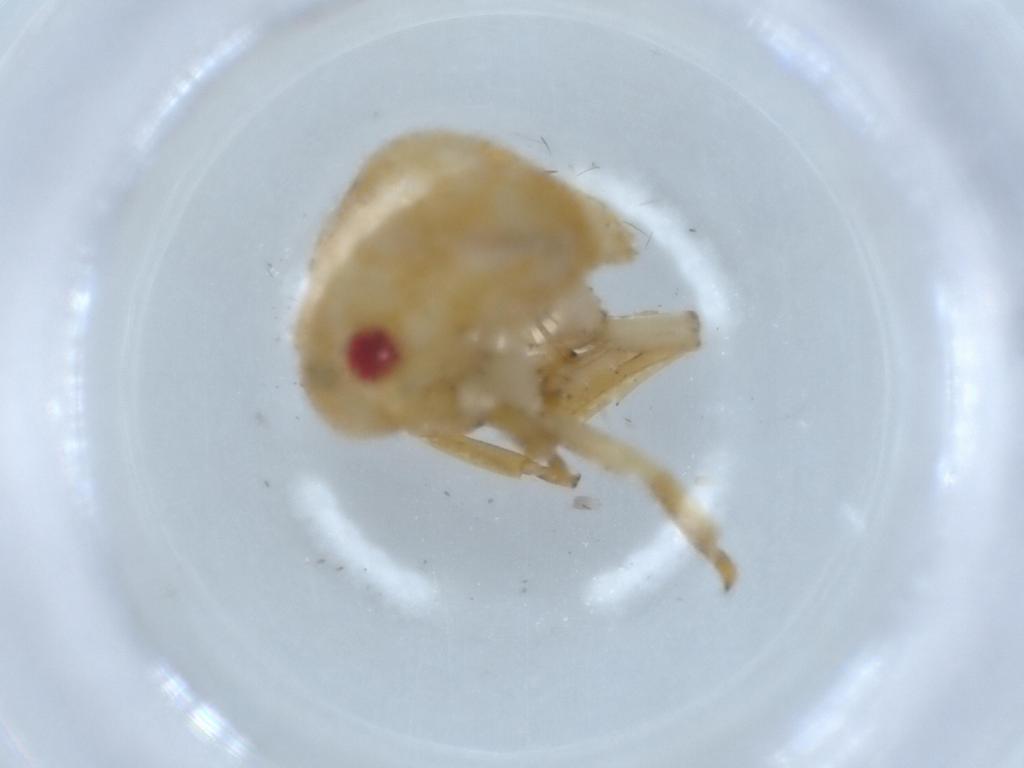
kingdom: Animalia
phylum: Arthropoda
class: Insecta
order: Hemiptera
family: Acanaloniidae
